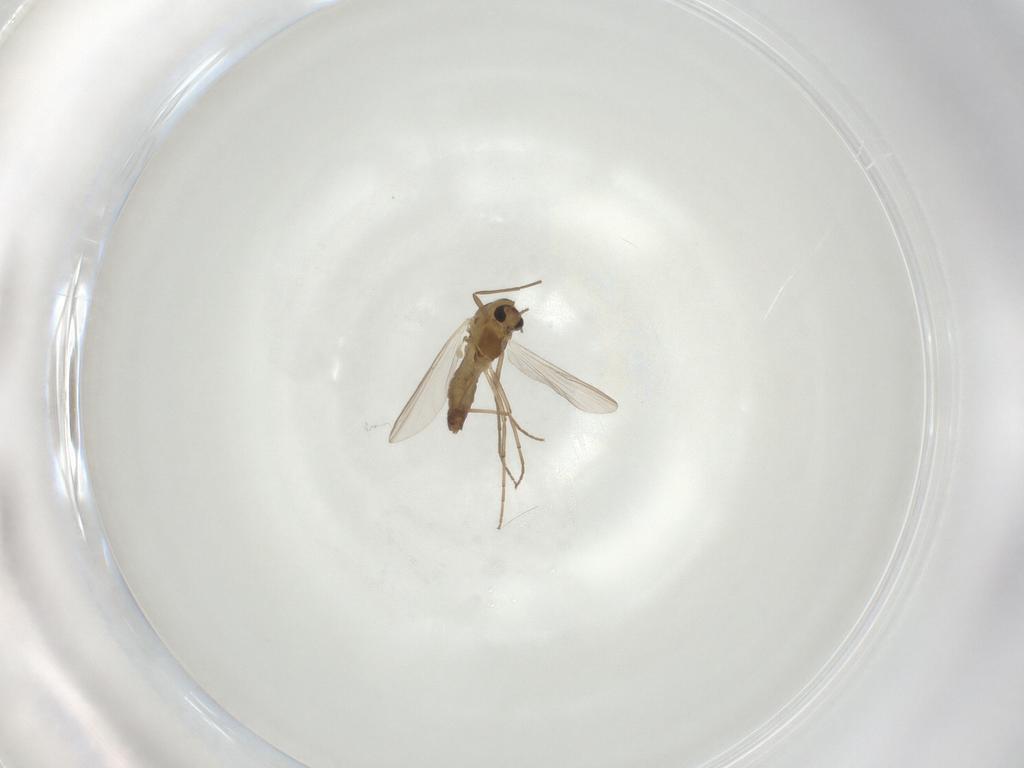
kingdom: Animalia
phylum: Arthropoda
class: Insecta
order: Diptera
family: Chironomidae
